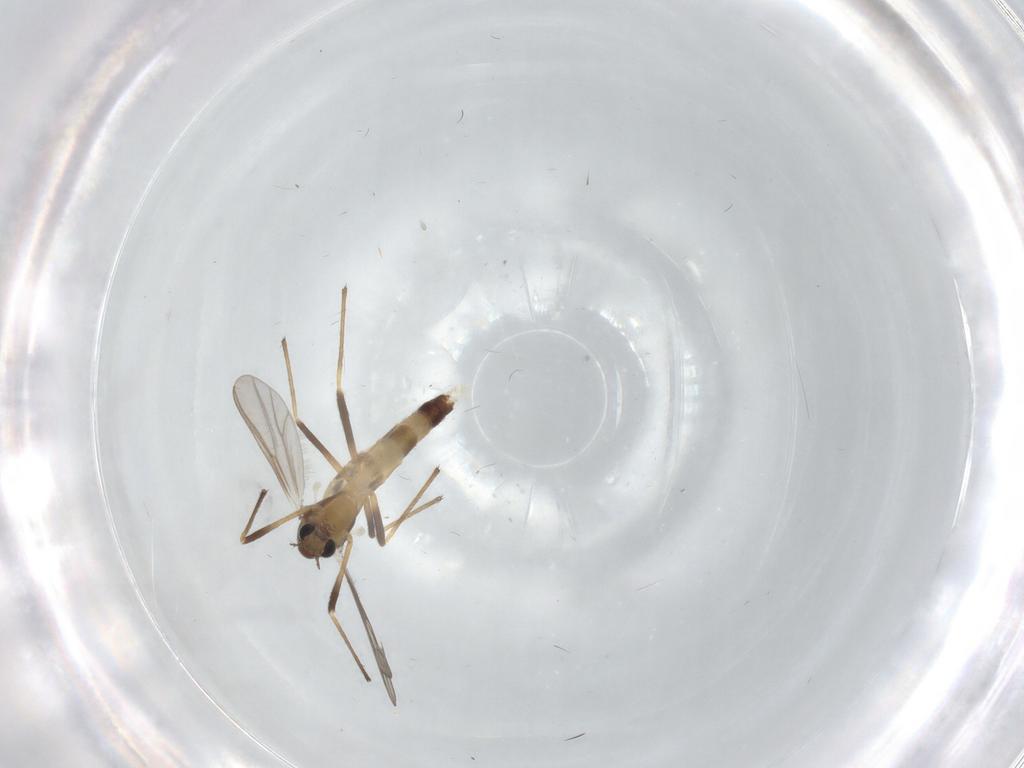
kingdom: Animalia
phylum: Arthropoda
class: Insecta
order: Diptera
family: Chironomidae
